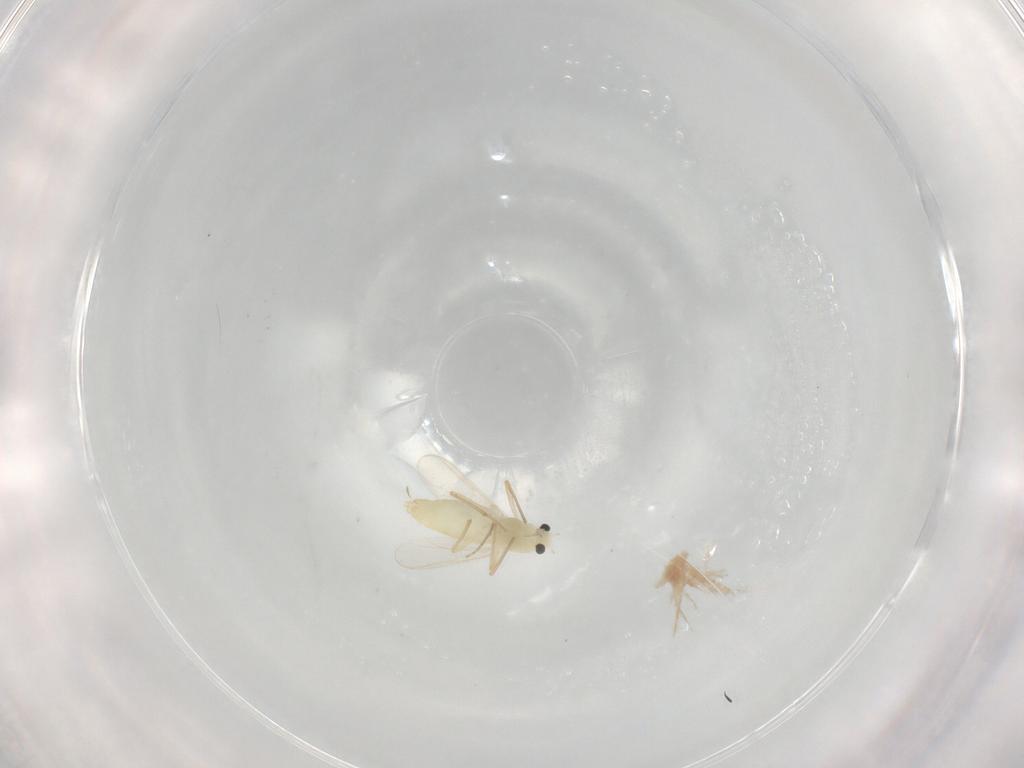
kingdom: Animalia
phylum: Arthropoda
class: Insecta
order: Diptera
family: Chironomidae
